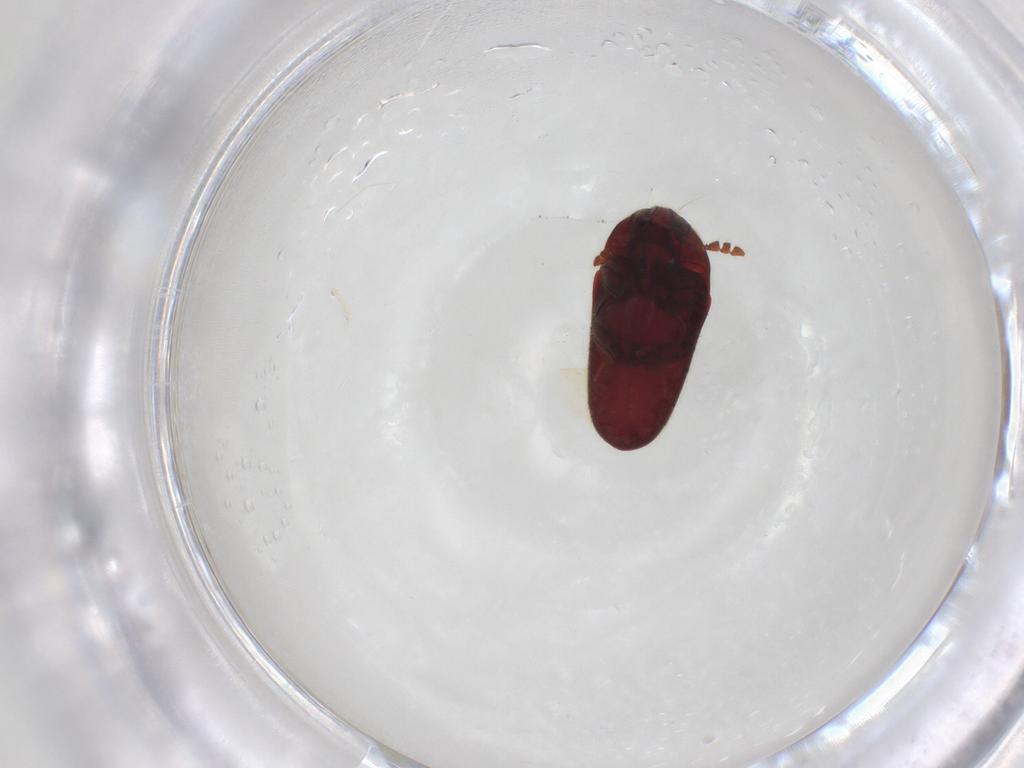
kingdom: Animalia
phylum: Arthropoda
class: Insecta
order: Coleoptera
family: Throscidae
